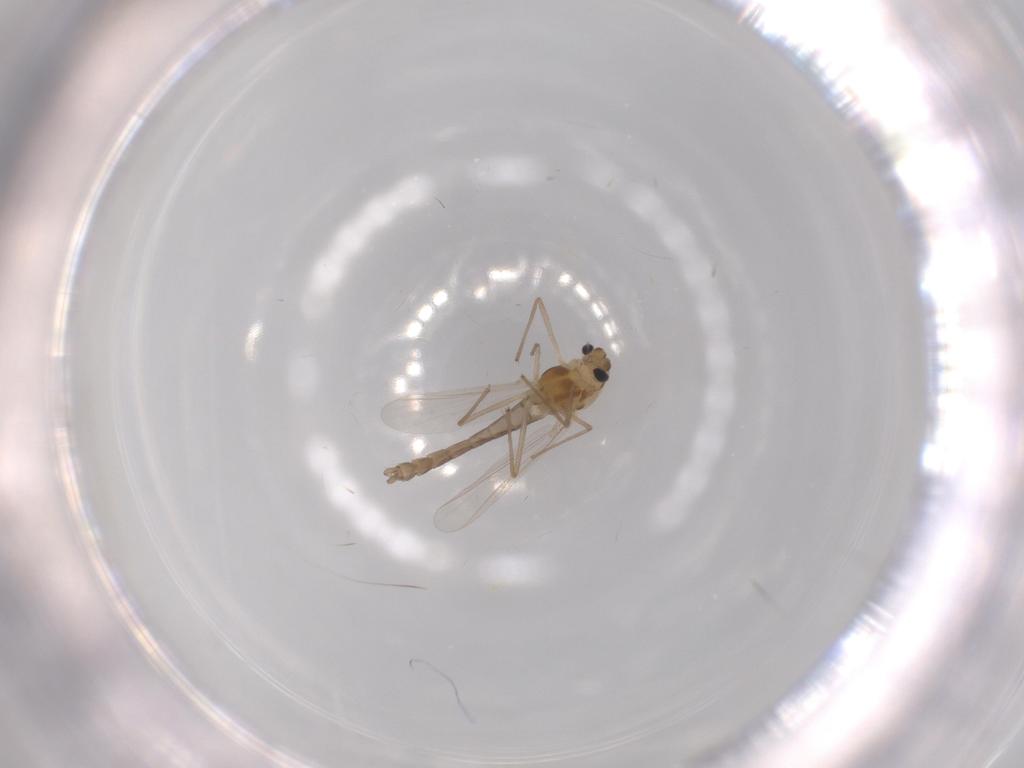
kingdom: Animalia
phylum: Arthropoda
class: Insecta
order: Diptera
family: Chironomidae
